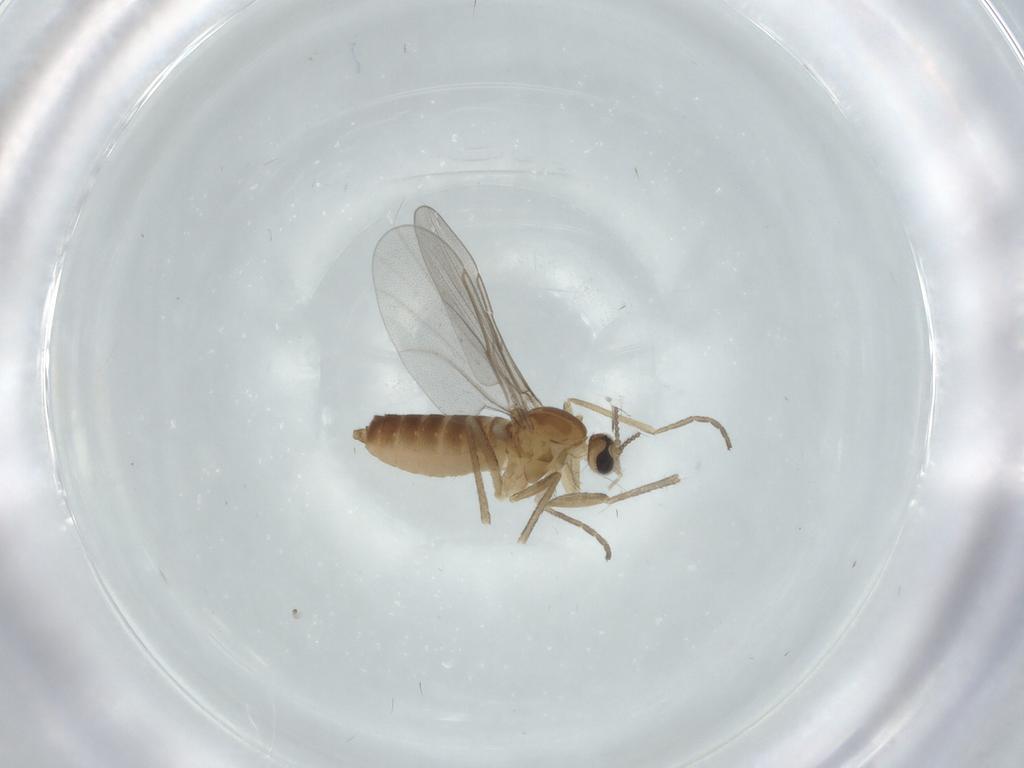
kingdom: Animalia
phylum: Arthropoda
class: Insecta
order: Diptera
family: Cecidomyiidae
